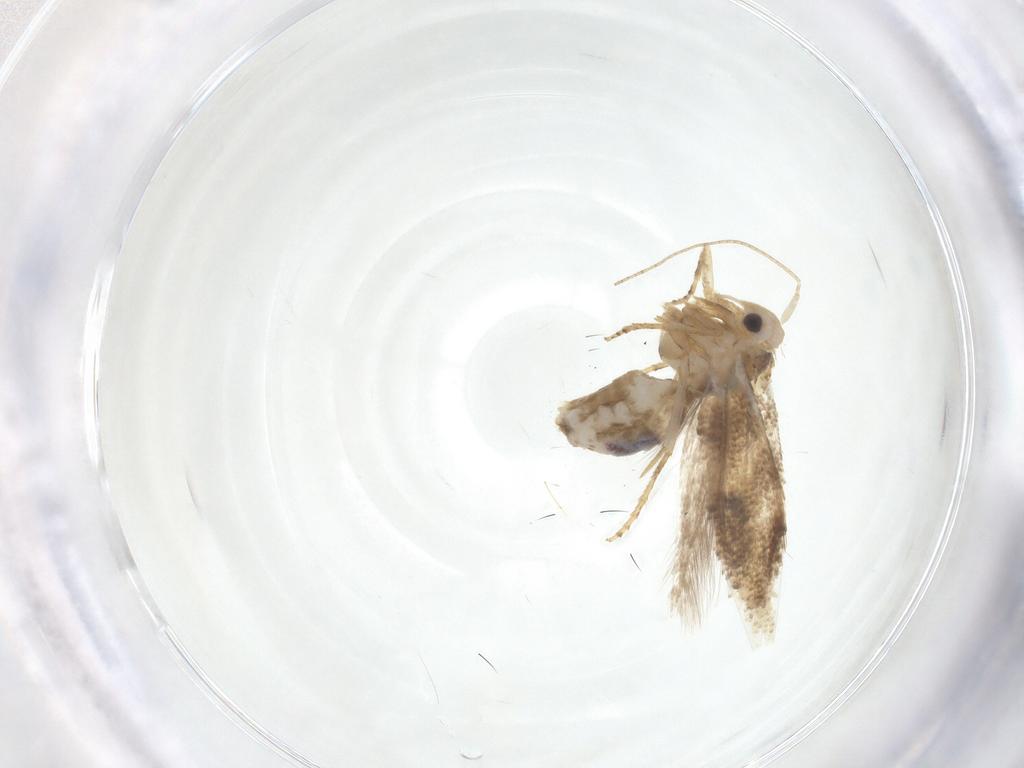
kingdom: Animalia
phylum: Arthropoda
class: Insecta
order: Lepidoptera
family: Bucculatricidae
